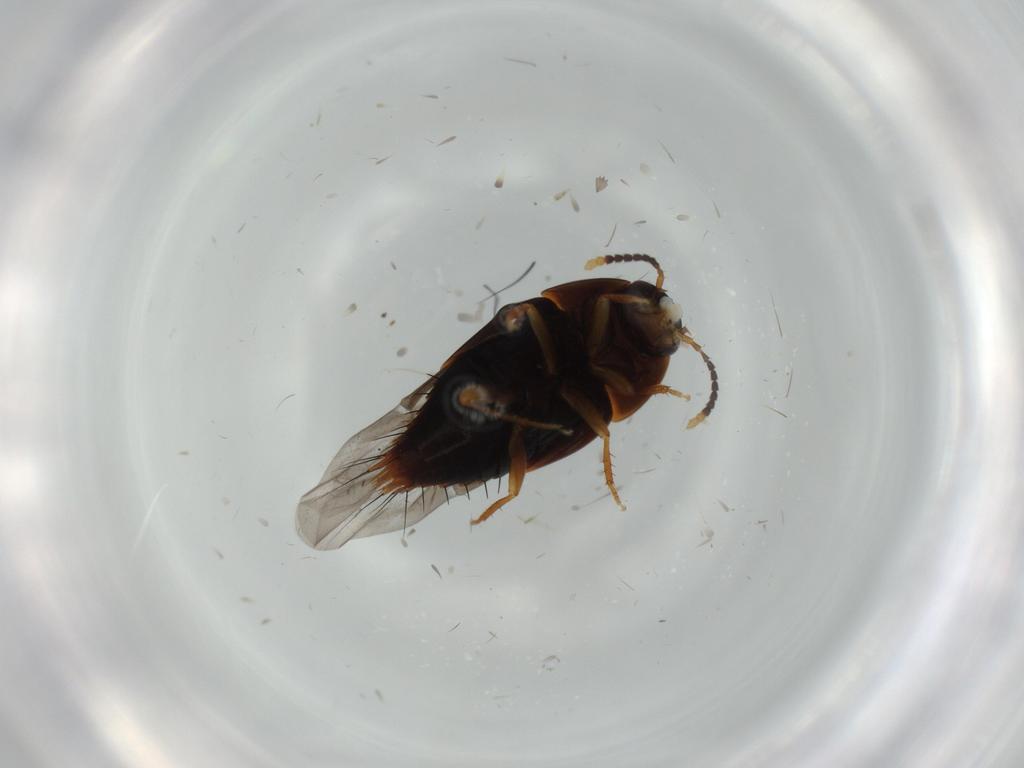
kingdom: Animalia
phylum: Arthropoda
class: Insecta
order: Coleoptera
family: Staphylinidae
